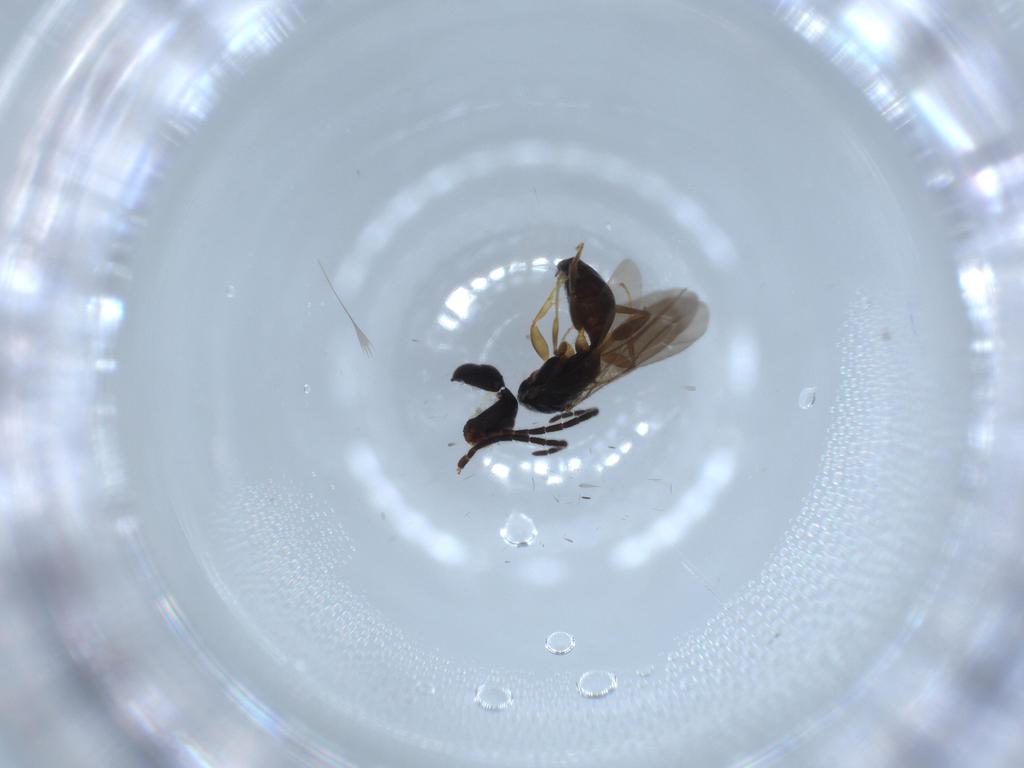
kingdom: Animalia
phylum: Arthropoda
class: Insecta
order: Hymenoptera
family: Bethylidae
